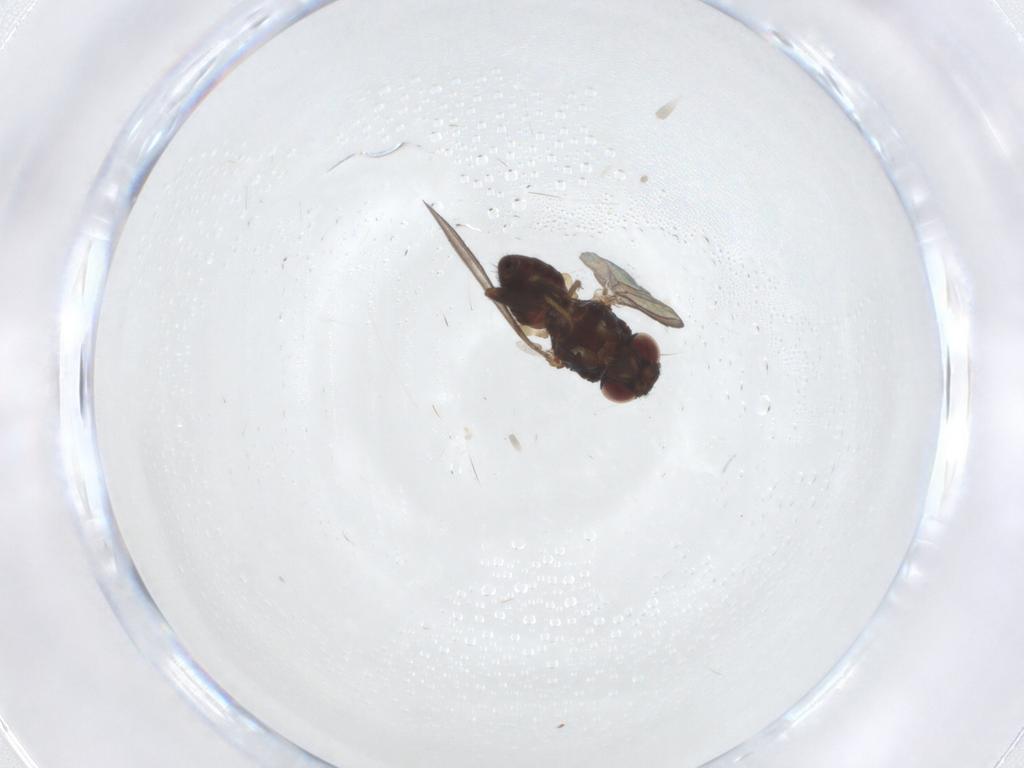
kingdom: Animalia
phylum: Arthropoda
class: Insecta
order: Diptera
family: Milichiidae
